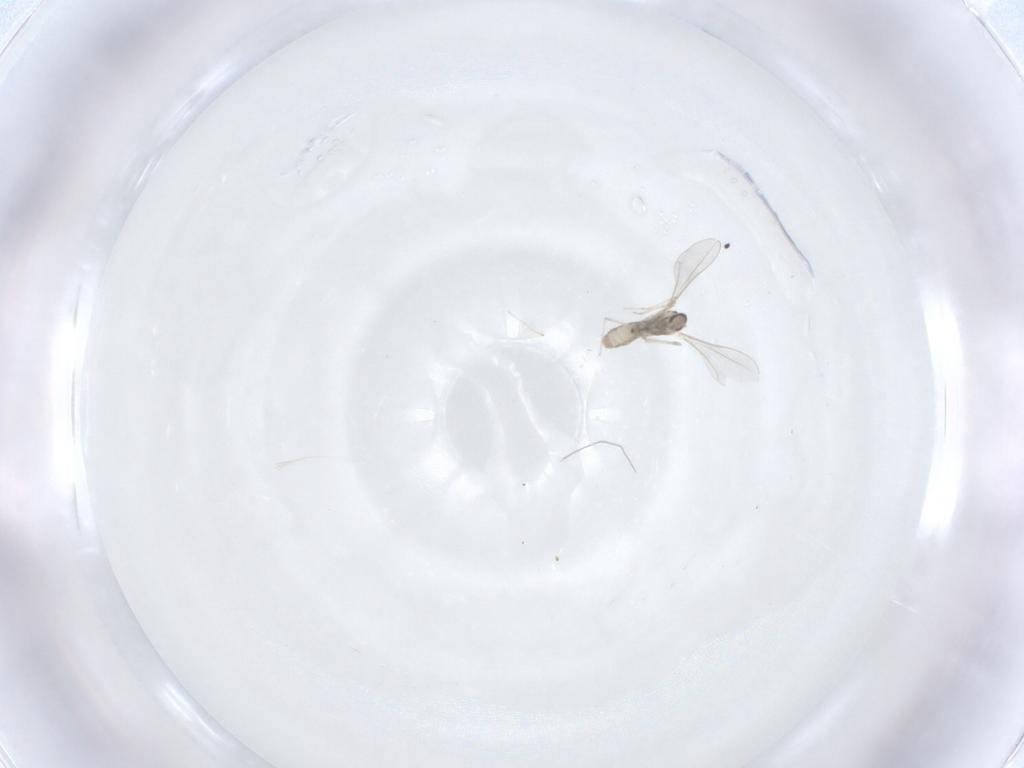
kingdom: Animalia
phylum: Arthropoda
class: Insecta
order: Diptera
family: Cecidomyiidae
